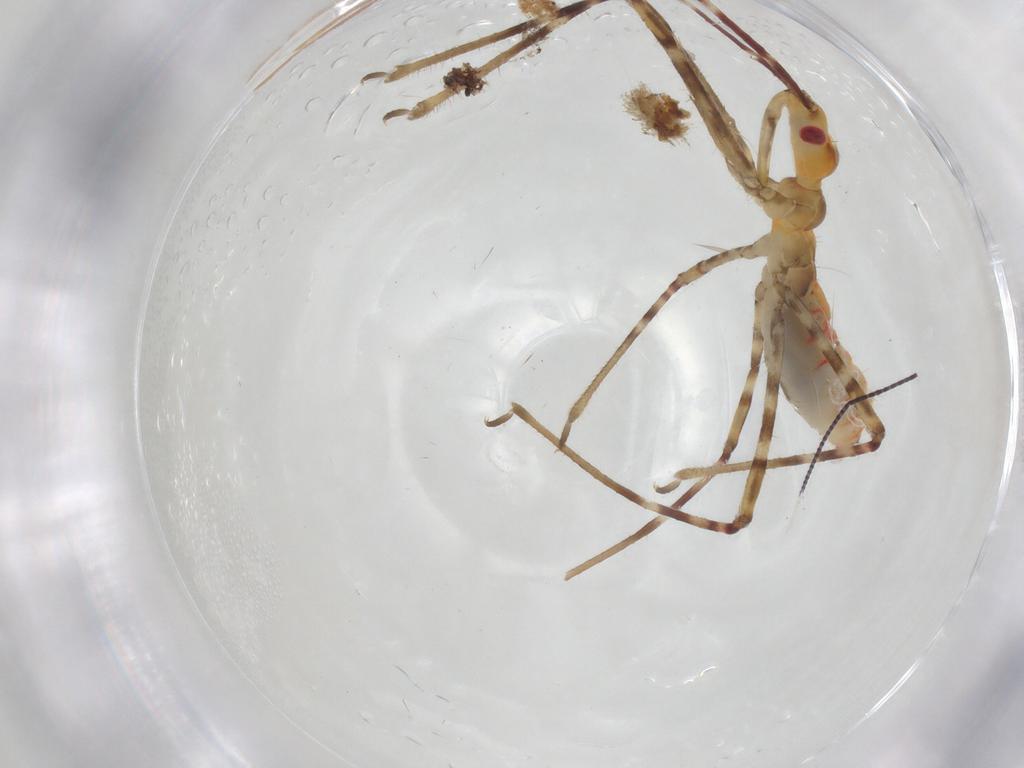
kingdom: Animalia
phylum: Arthropoda
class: Insecta
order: Hemiptera
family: Reduviidae
